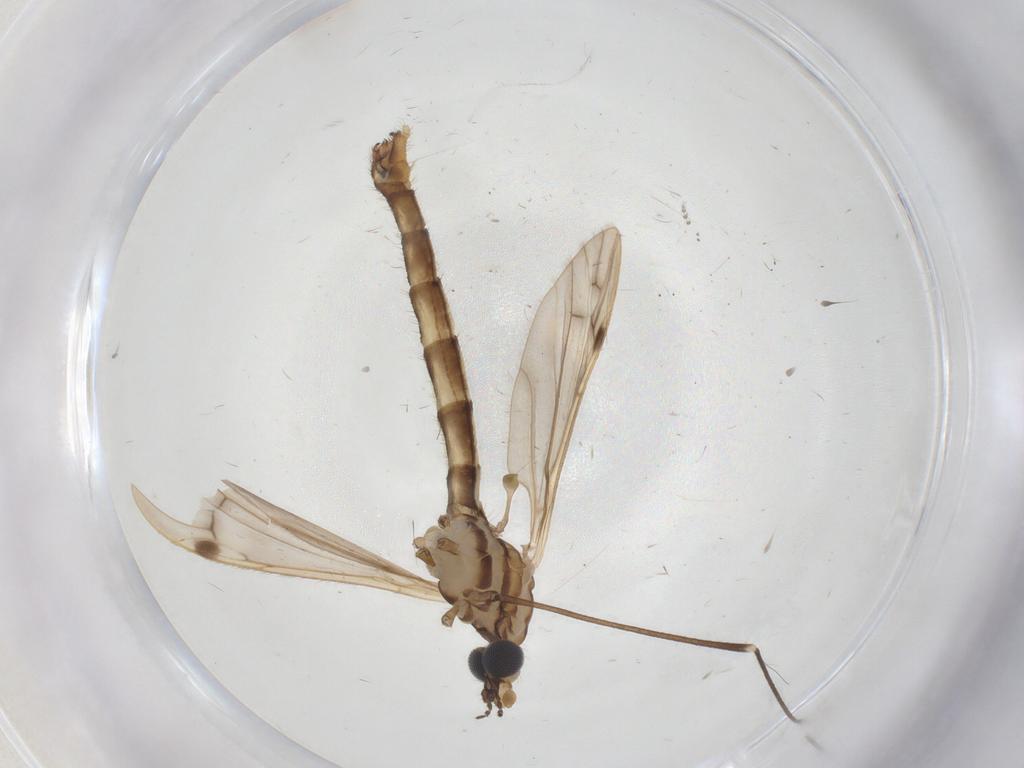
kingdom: Animalia
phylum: Arthropoda
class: Insecta
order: Diptera
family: Limoniidae
